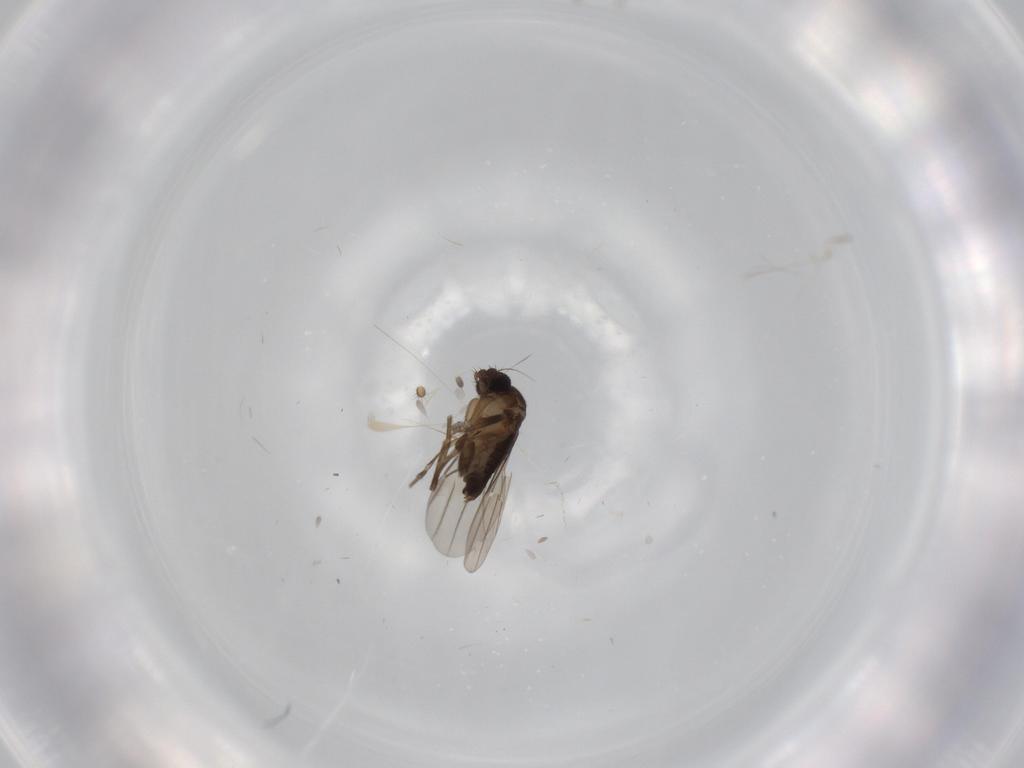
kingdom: Animalia
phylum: Arthropoda
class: Insecta
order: Diptera
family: Phoridae
